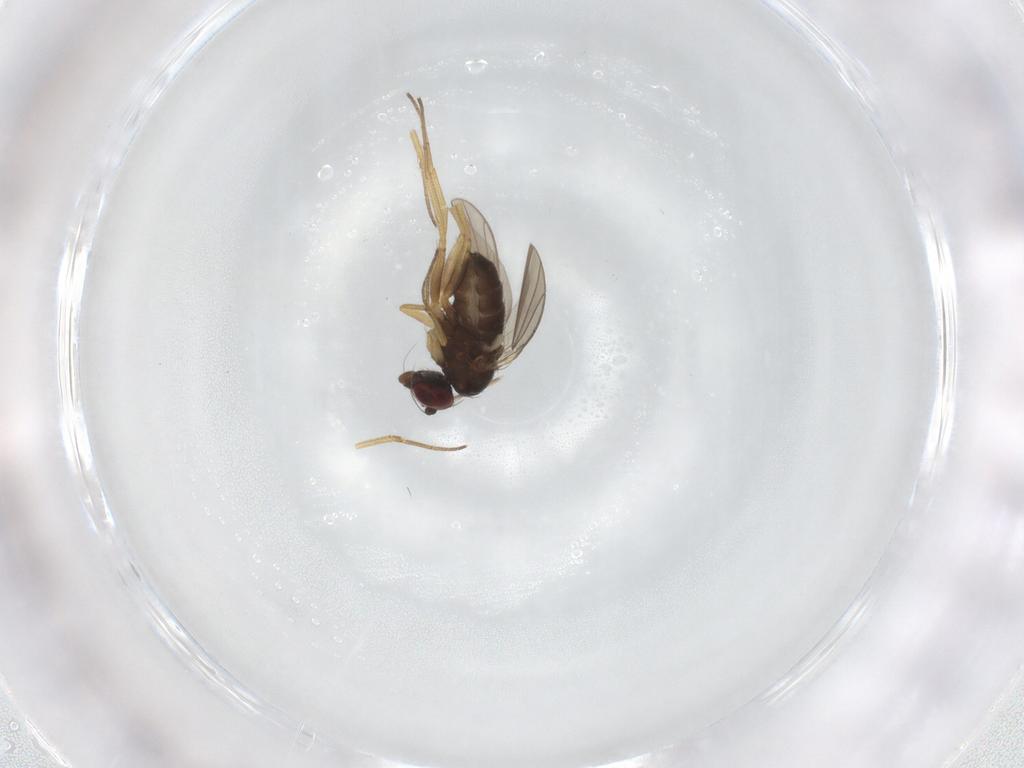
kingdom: Animalia
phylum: Arthropoda
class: Insecta
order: Diptera
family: Dolichopodidae
